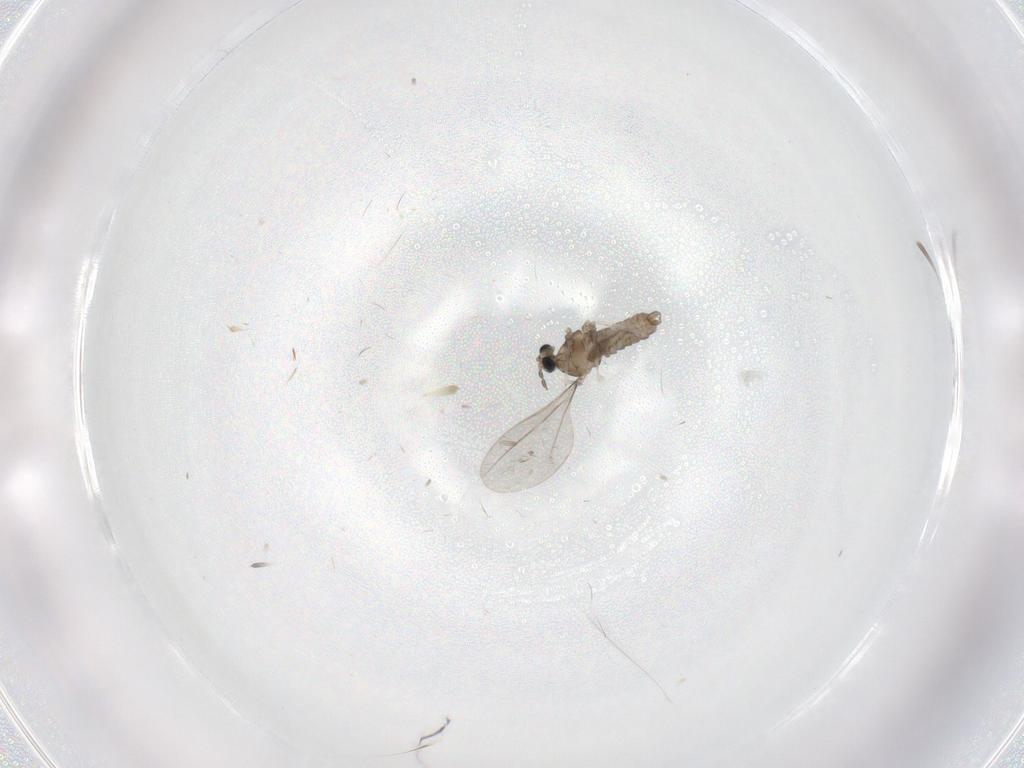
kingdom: Animalia
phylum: Arthropoda
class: Insecta
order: Diptera
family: Cecidomyiidae
